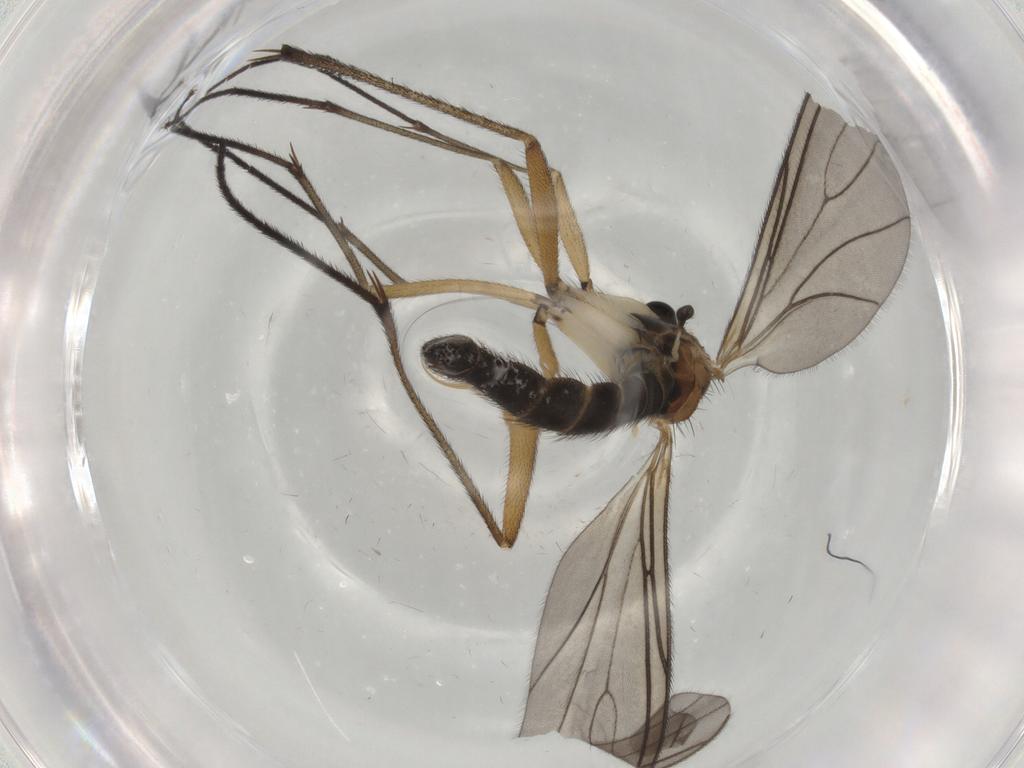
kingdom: Animalia
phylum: Arthropoda
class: Insecta
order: Diptera
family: Sciaridae
